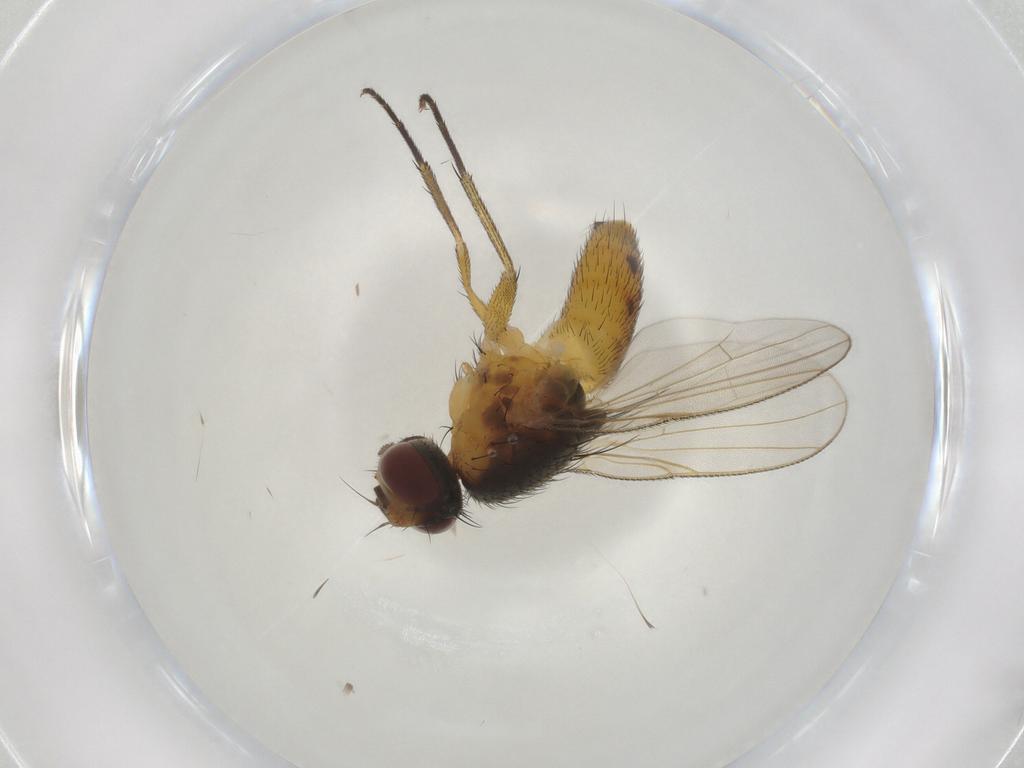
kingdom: Animalia
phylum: Arthropoda
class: Insecta
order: Diptera
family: Muscidae
